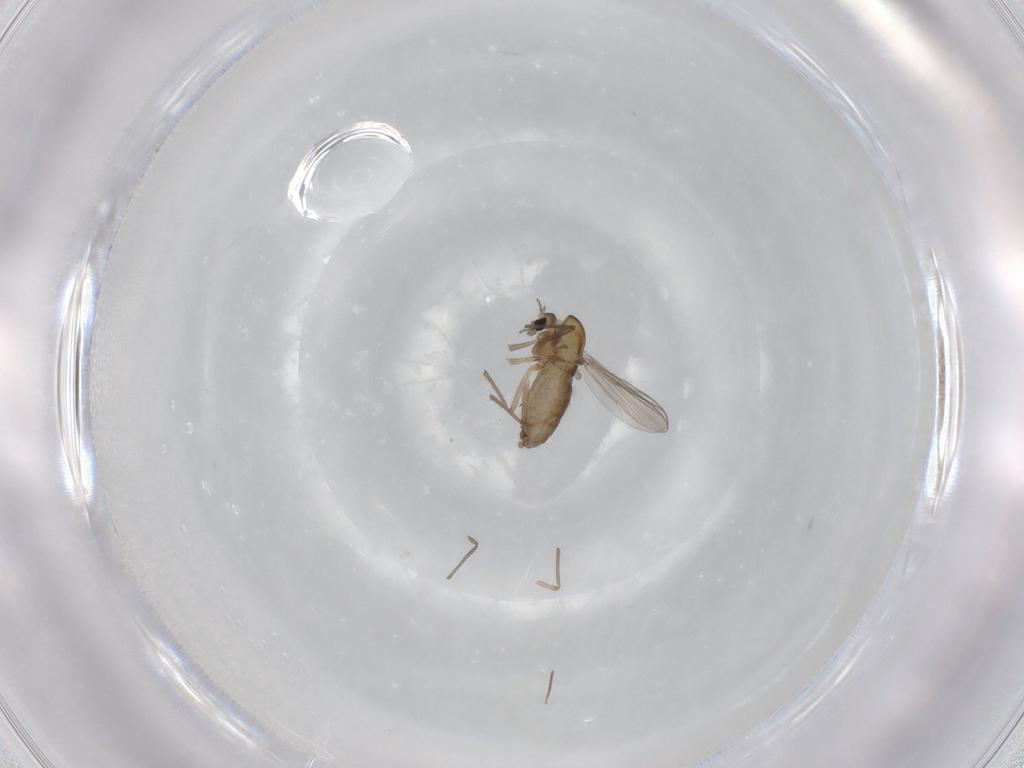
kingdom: Animalia
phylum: Arthropoda
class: Insecta
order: Diptera
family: Chironomidae
